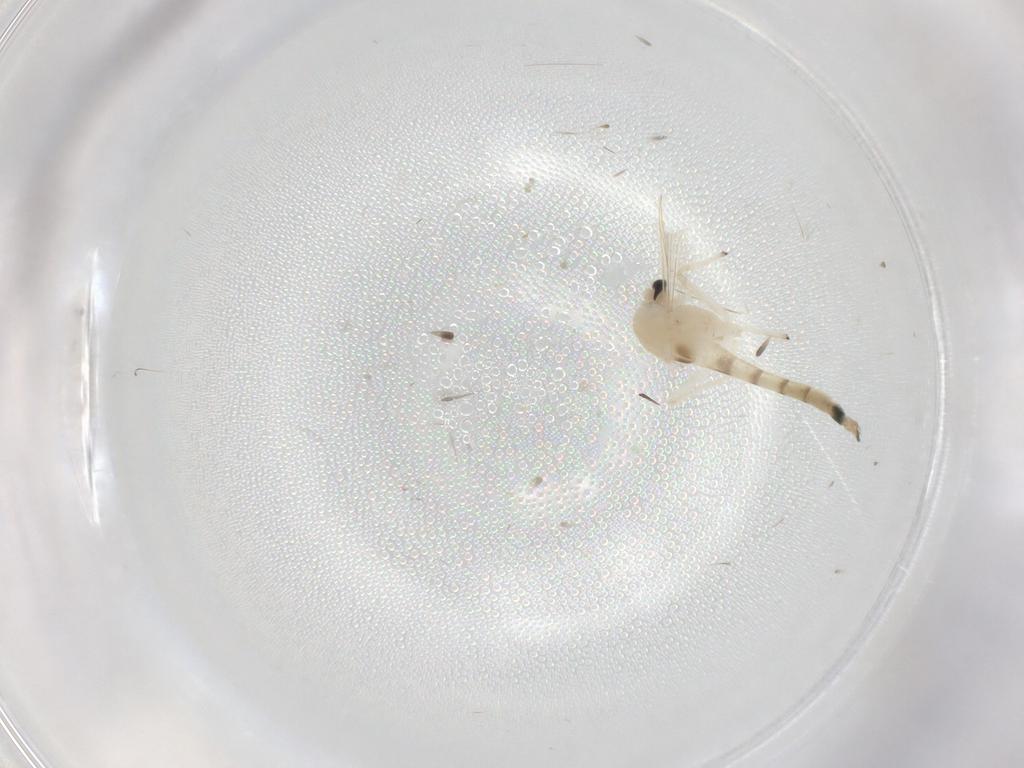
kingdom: Animalia
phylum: Arthropoda
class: Insecta
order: Diptera
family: Chironomidae
